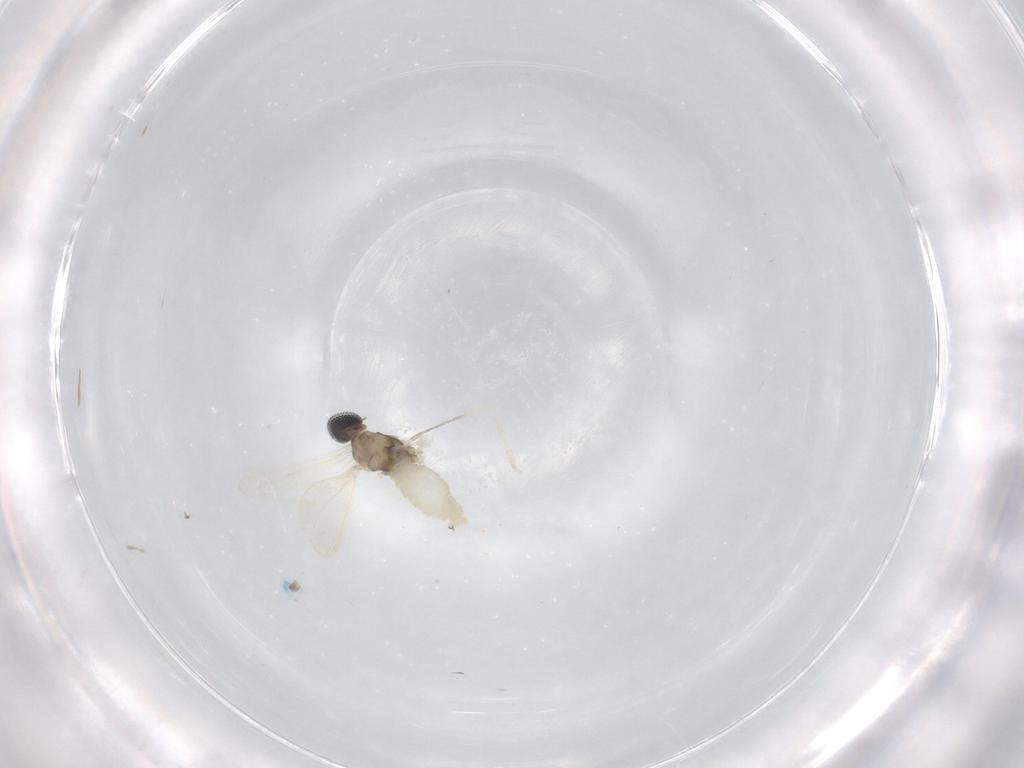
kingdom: Animalia
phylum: Arthropoda
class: Insecta
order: Diptera
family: Cecidomyiidae
